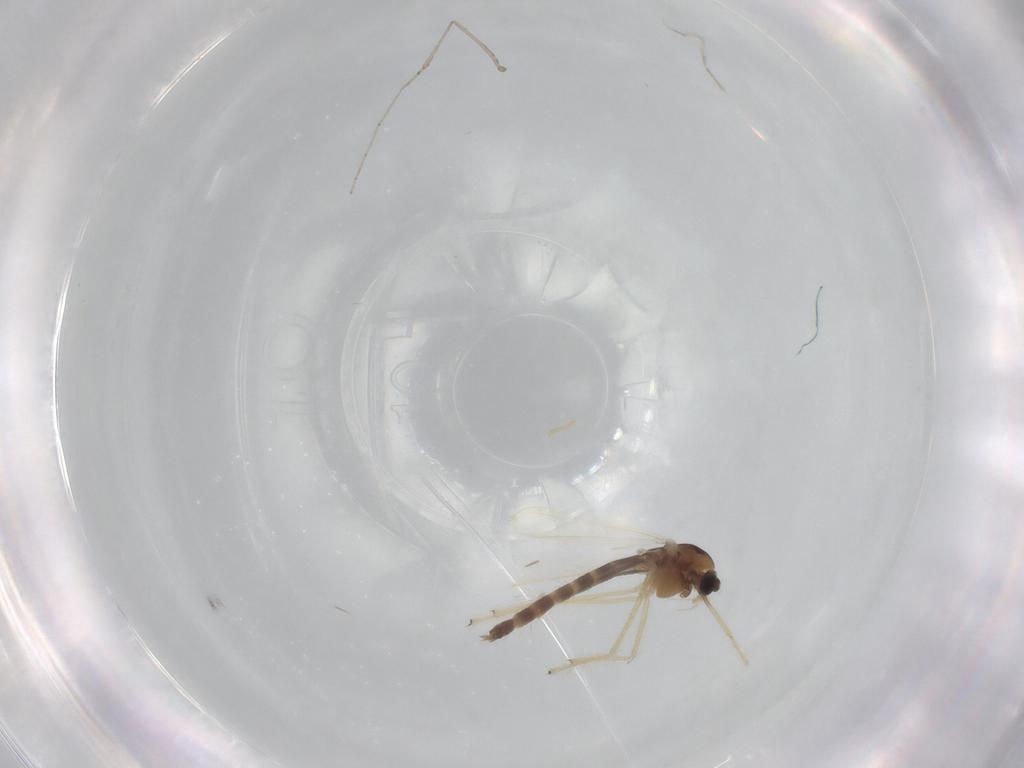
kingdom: Animalia
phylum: Arthropoda
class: Insecta
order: Diptera
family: Chironomidae
